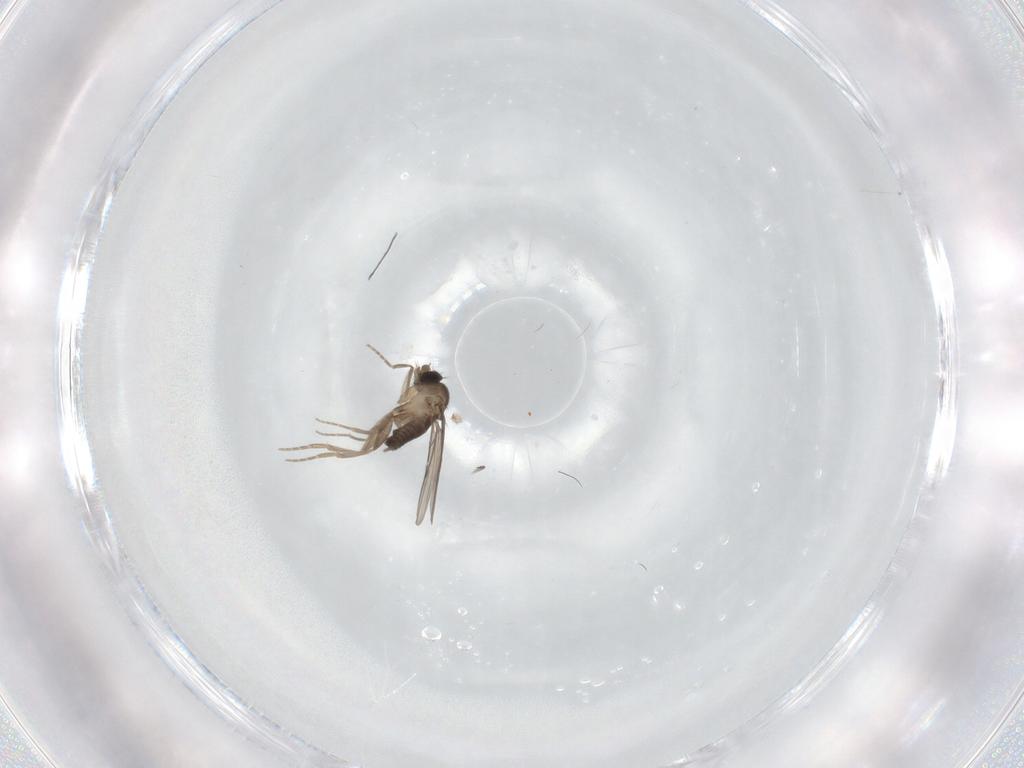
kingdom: Animalia
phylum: Arthropoda
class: Insecta
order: Diptera
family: Phoridae
